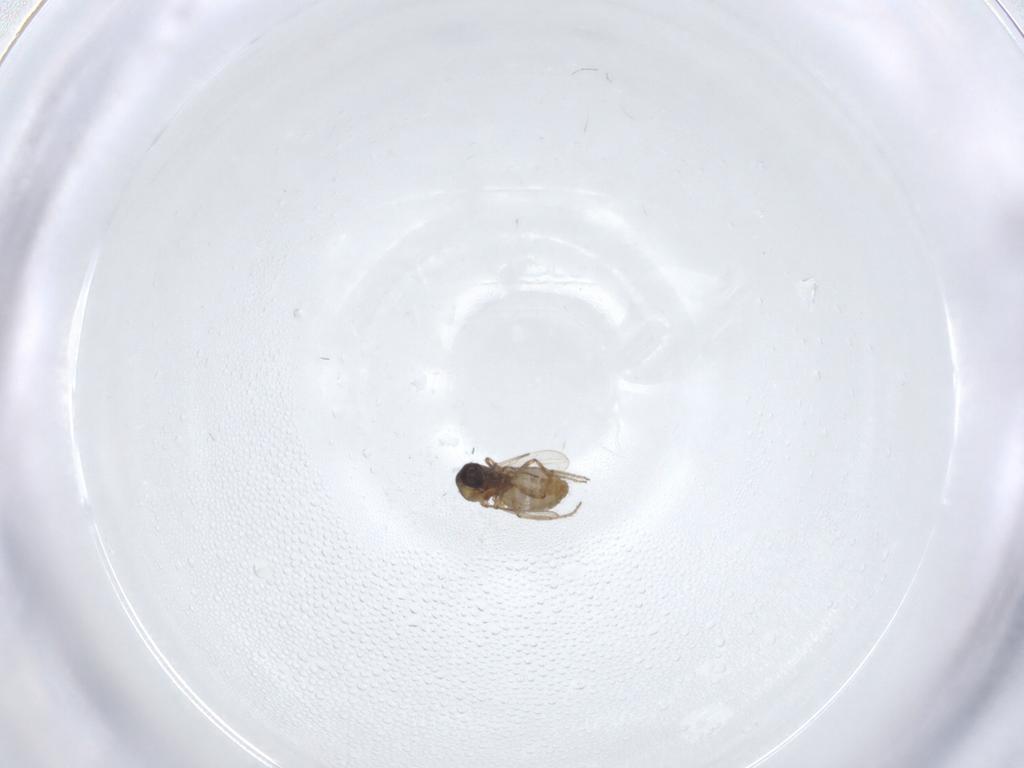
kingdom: Animalia
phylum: Arthropoda
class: Insecta
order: Diptera
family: Ceratopogonidae
